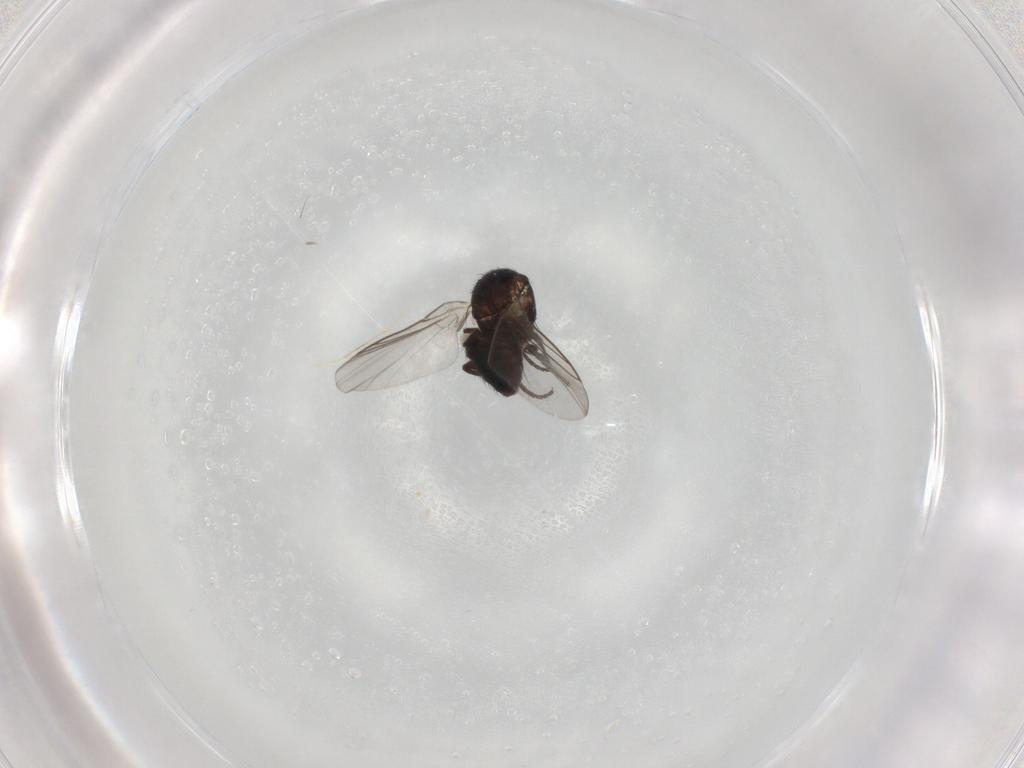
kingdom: Animalia
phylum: Arthropoda
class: Insecta
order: Diptera
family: Phoridae
